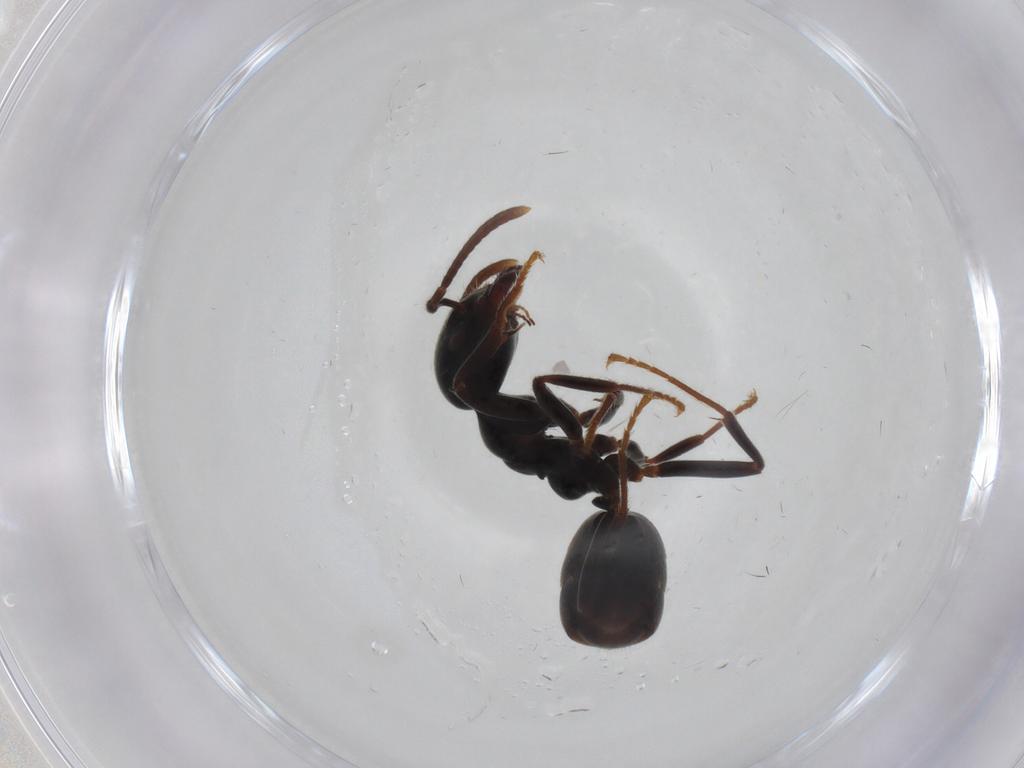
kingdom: Animalia
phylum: Arthropoda
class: Insecta
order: Hymenoptera
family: Formicidae
